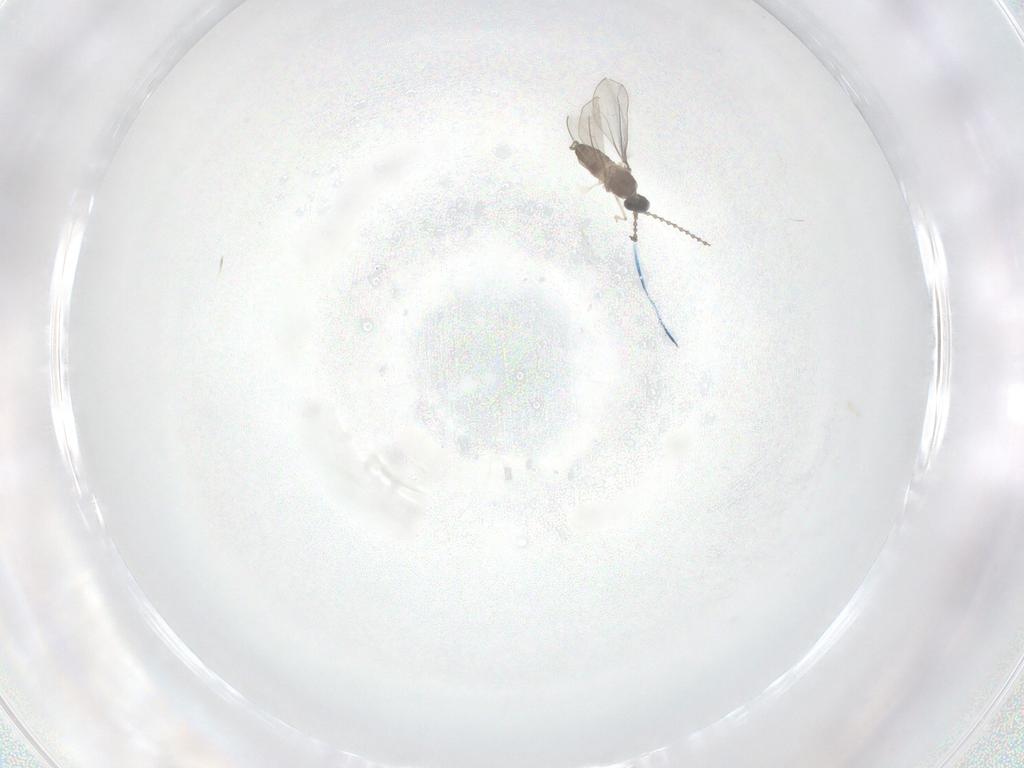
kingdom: Animalia
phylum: Arthropoda
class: Insecta
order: Diptera
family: Cecidomyiidae
